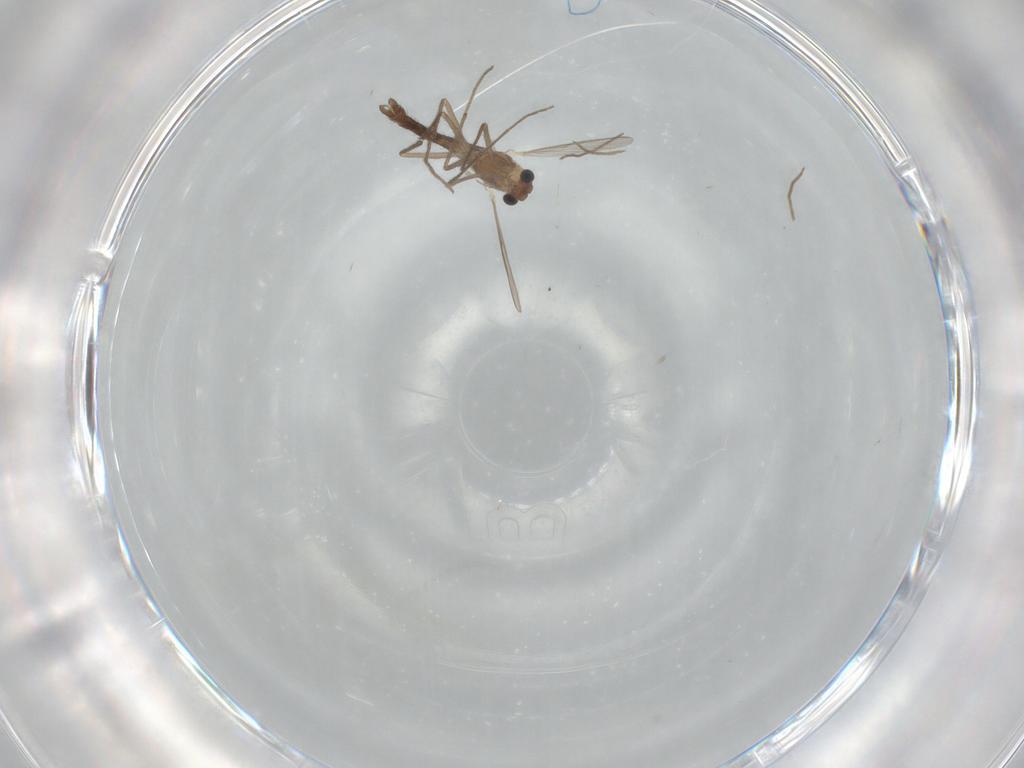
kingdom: Animalia
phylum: Arthropoda
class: Insecta
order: Diptera
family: Chironomidae
